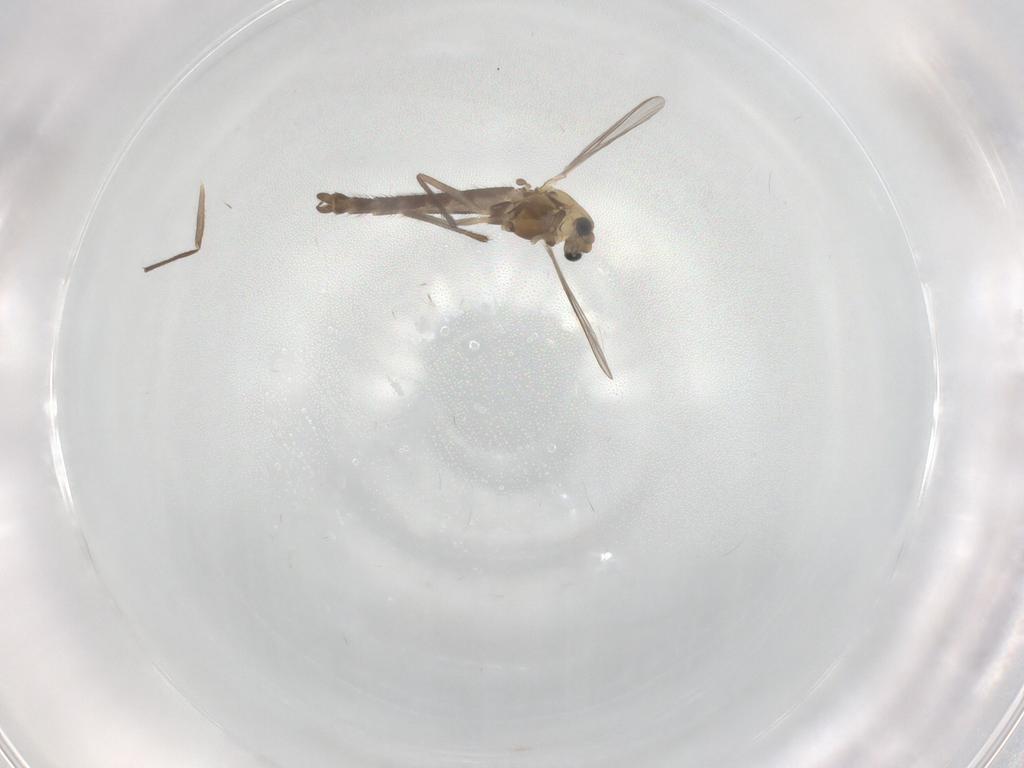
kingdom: Animalia
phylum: Arthropoda
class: Insecta
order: Diptera
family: Chironomidae
